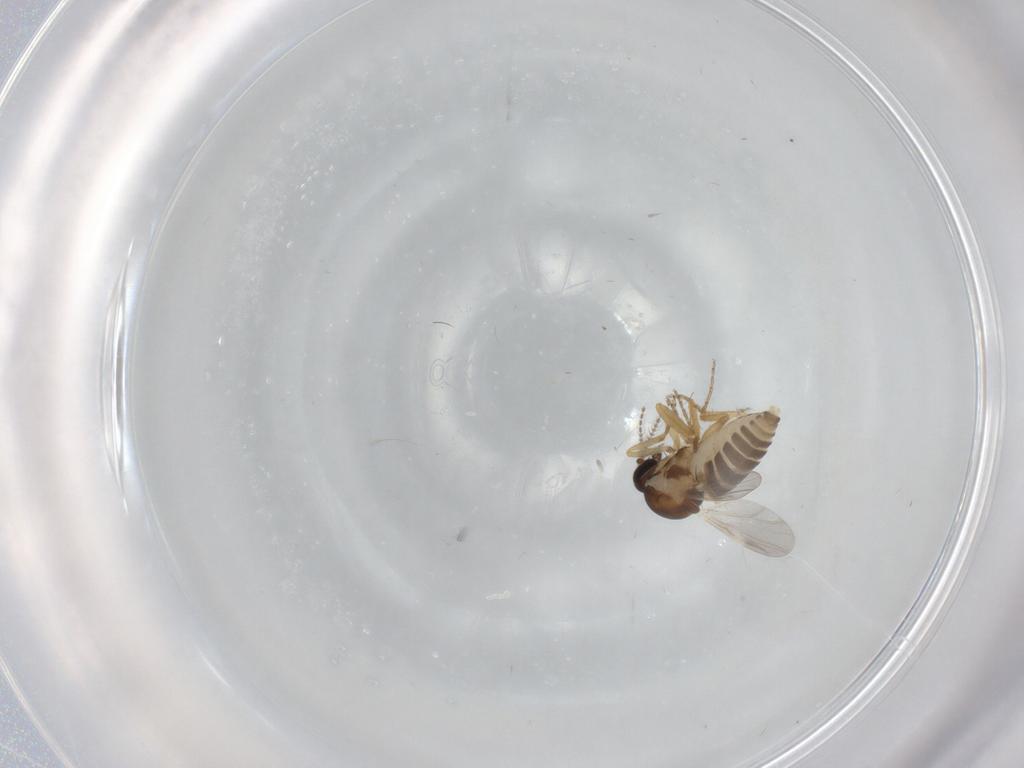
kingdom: Animalia
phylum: Arthropoda
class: Insecta
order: Diptera
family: Ceratopogonidae
